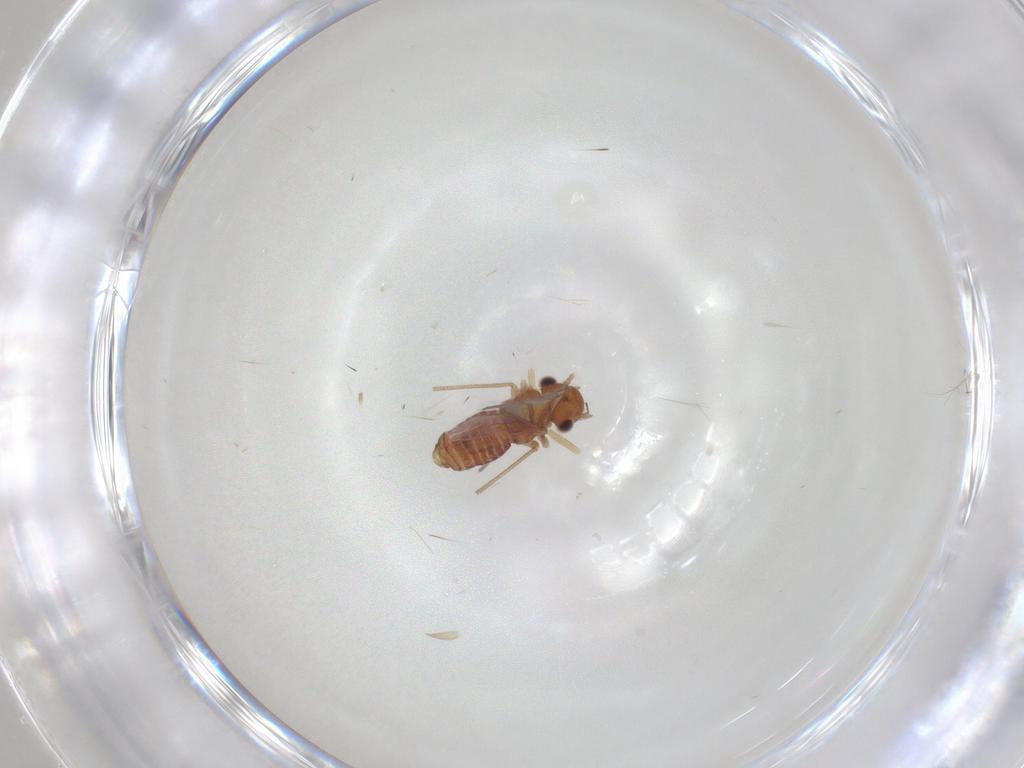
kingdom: Animalia
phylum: Arthropoda
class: Insecta
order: Psocodea
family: Lachesillidae
